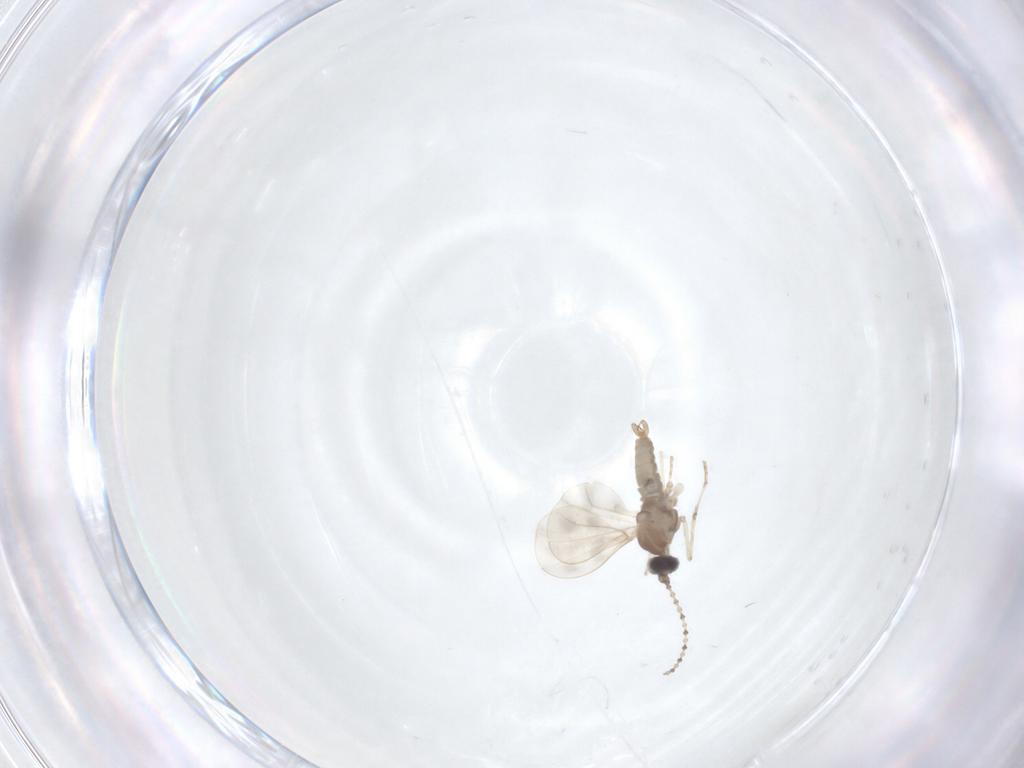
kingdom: Animalia
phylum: Arthropoda
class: Insecta
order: Diptera
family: Cecidomyiidae
